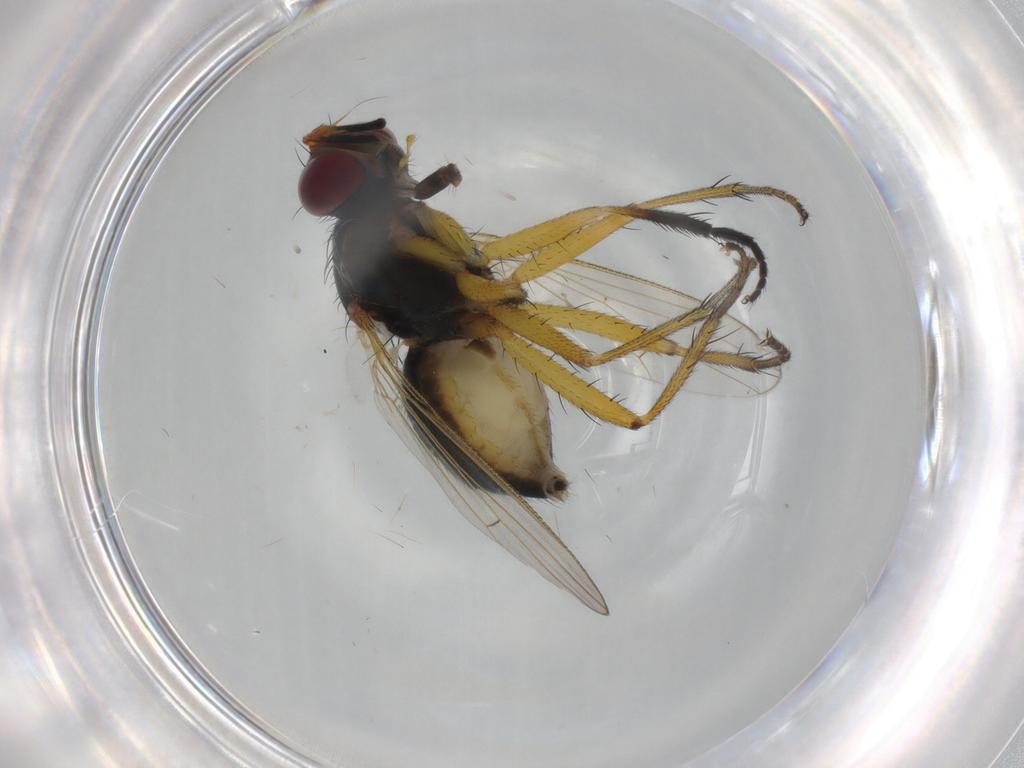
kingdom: Animalia
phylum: Arthropoda
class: Insecta
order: Diptera
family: Muscidae
